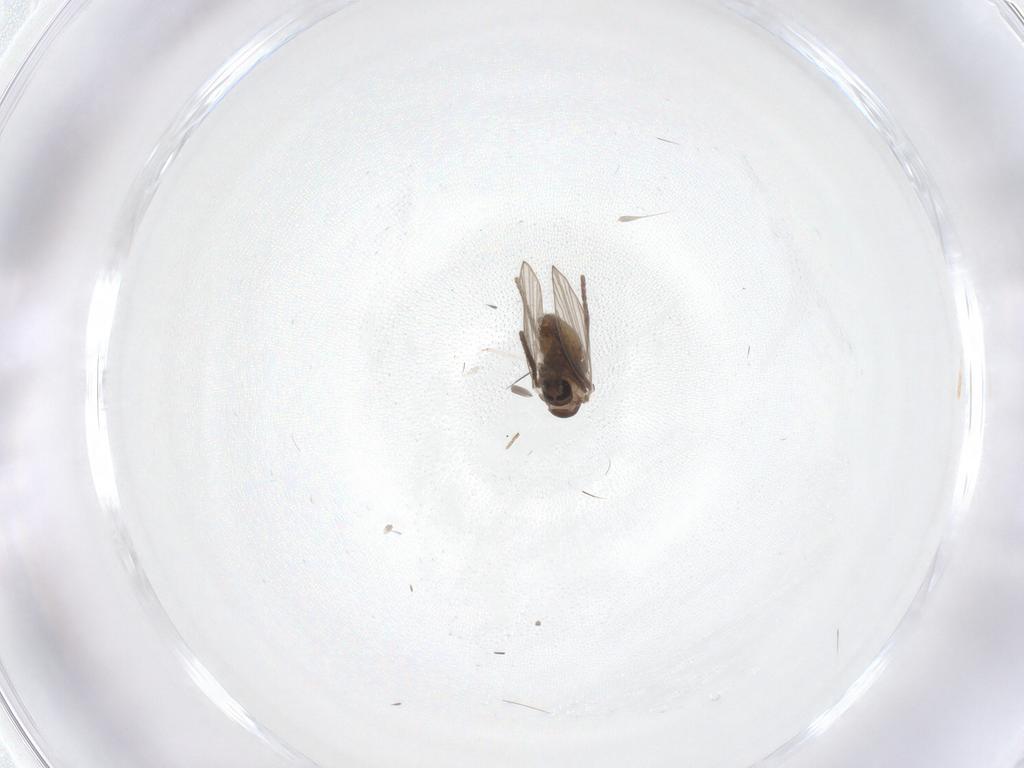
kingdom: Animalia
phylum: Arthropoda
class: Insecta
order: Diptera
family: Psychodidae
